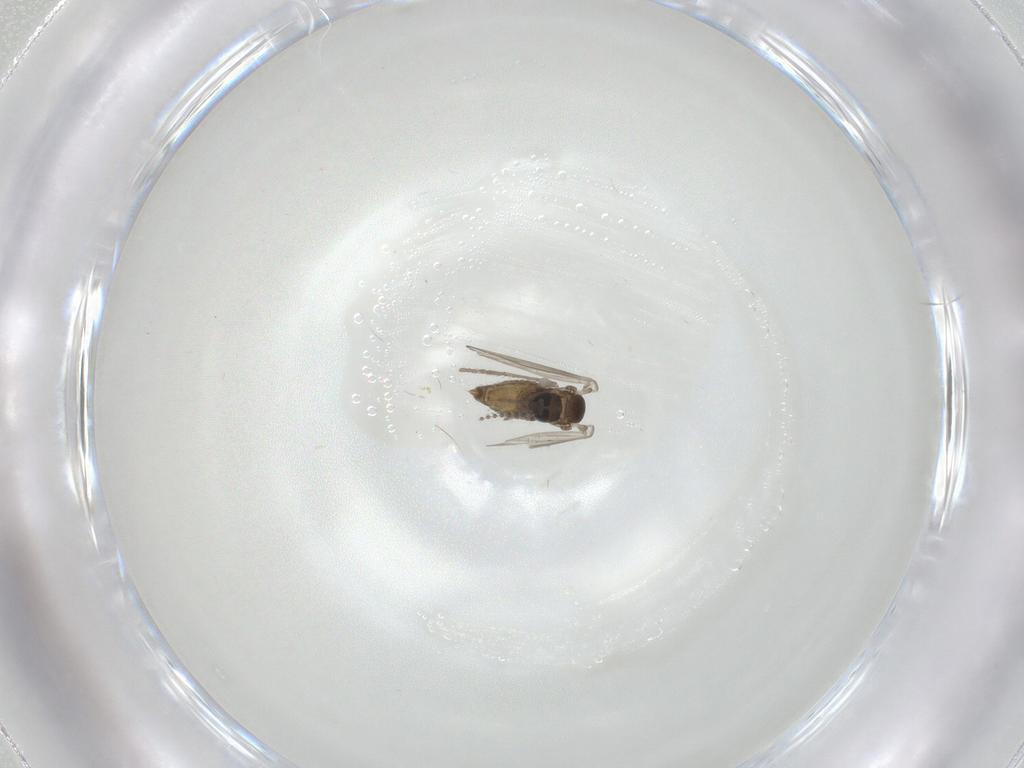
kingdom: Animalia
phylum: Arthropoda
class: Insecta
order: Diptera
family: Psychodidae
